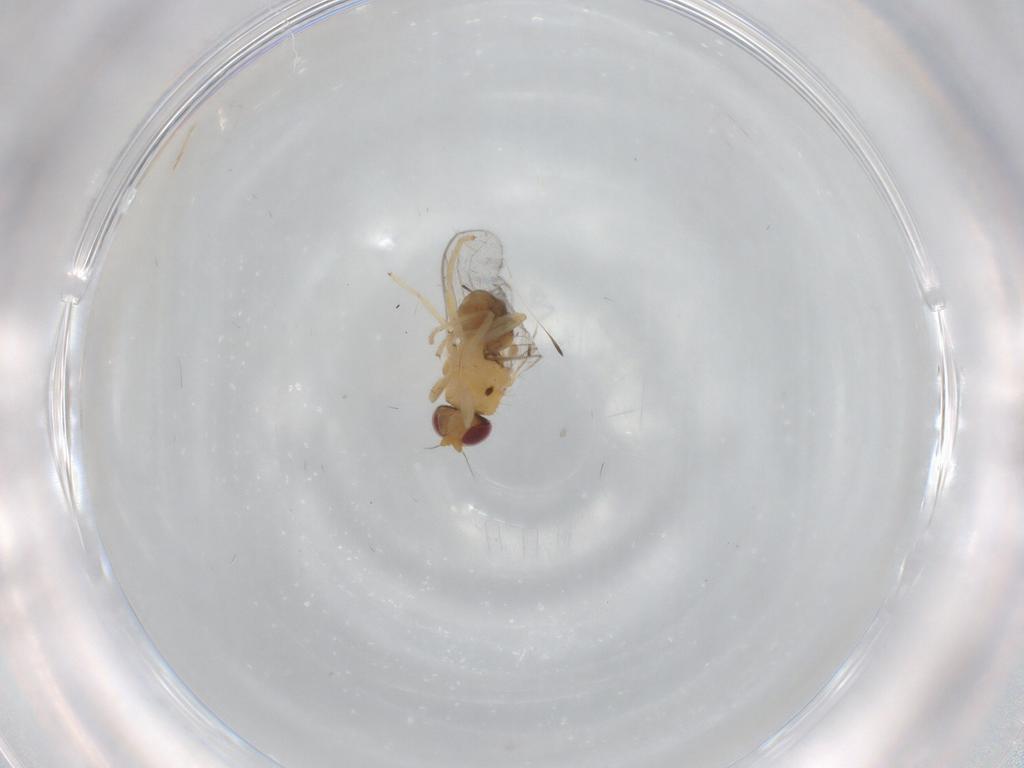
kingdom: Animalia
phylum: Arthropoda
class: Insecta
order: Diptera
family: Chloropidae
